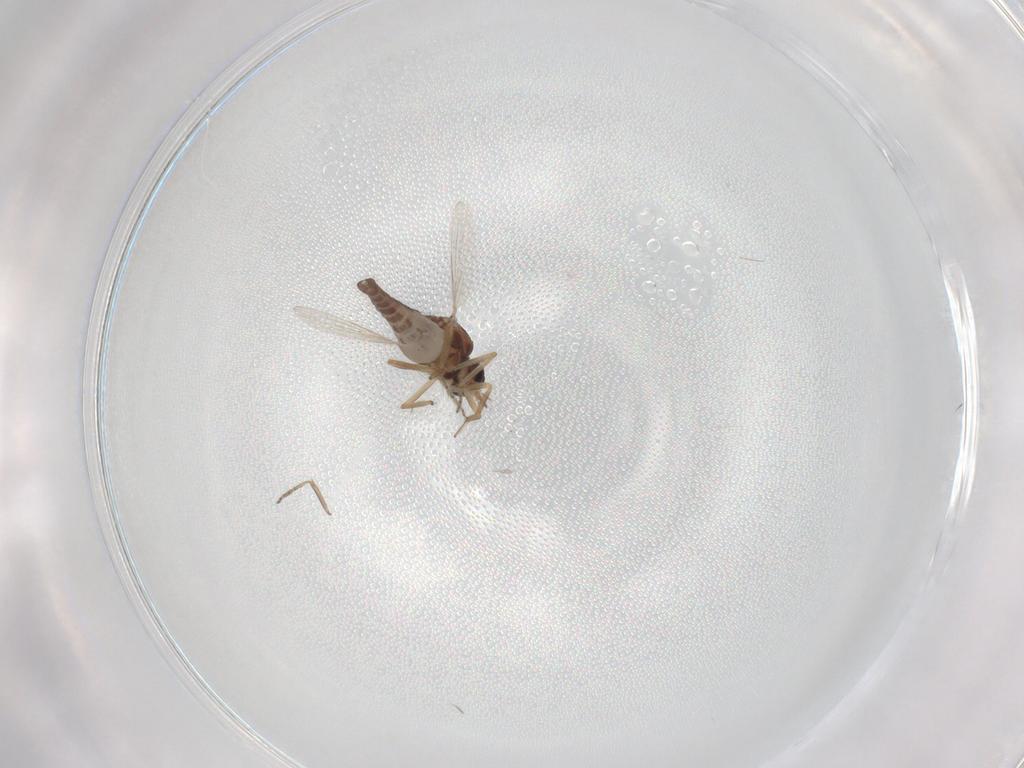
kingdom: Animalia
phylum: Arthropoda
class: Insecta
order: Diptera
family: Ceratopogonidae
